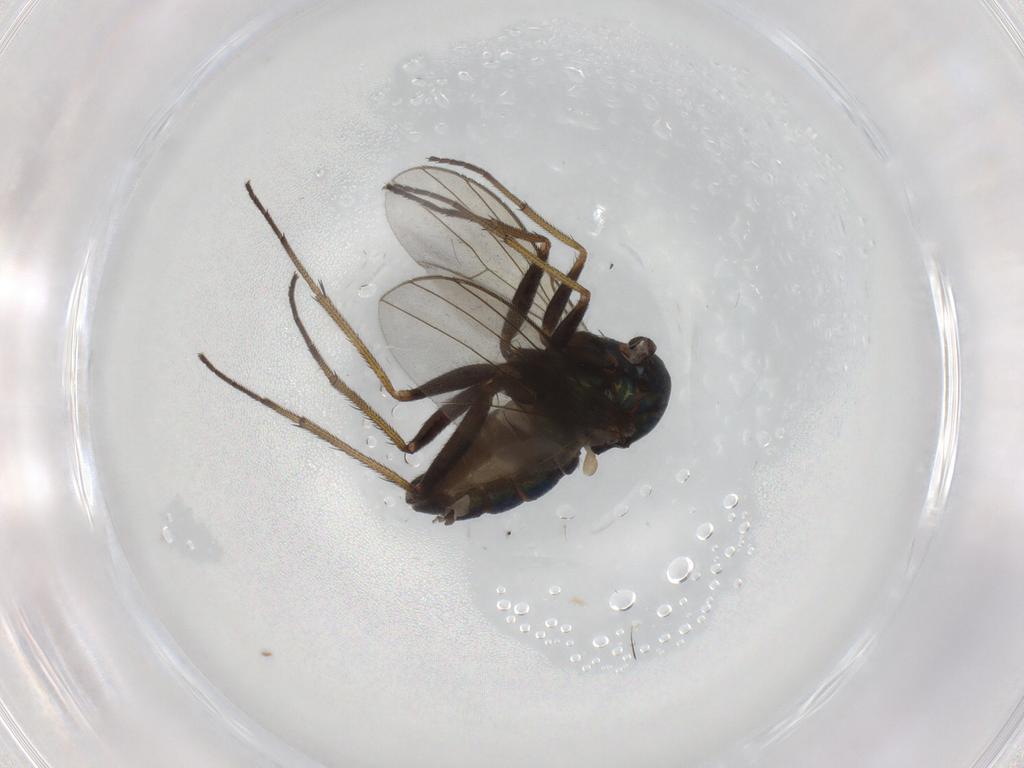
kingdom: Animalia
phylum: Arthropoda
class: Insecta
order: Diptera
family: Dolichopodidae
